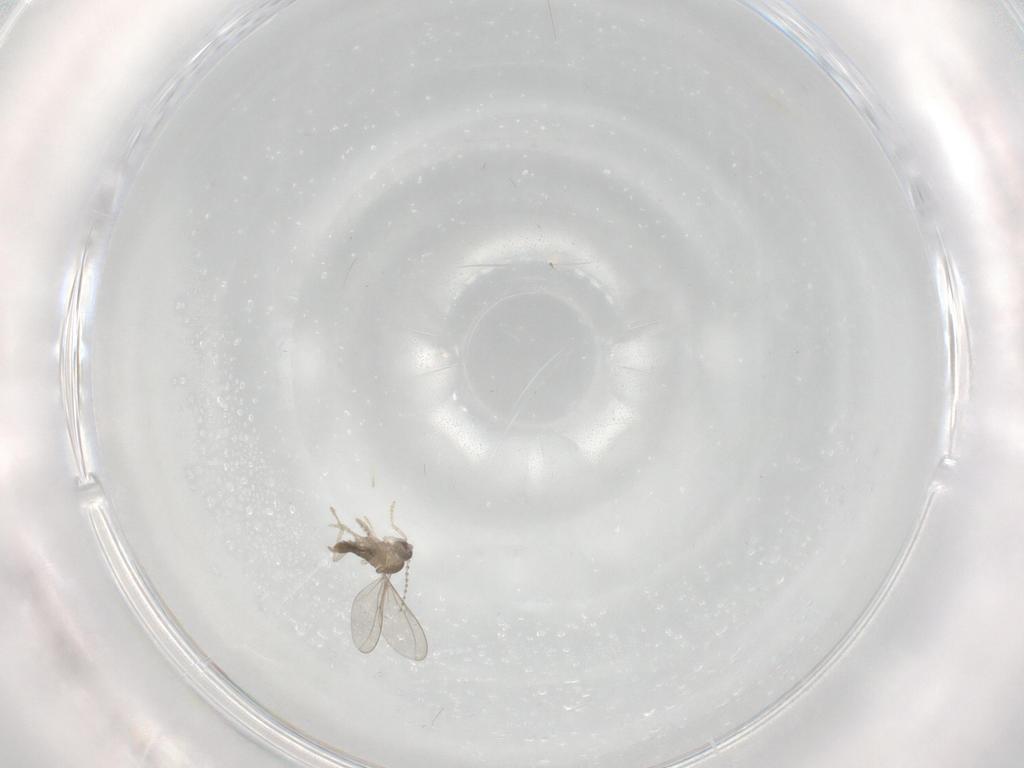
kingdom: Animalia
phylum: Arthropoda
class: Insecta
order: Diptera
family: Cecidomyiidae
